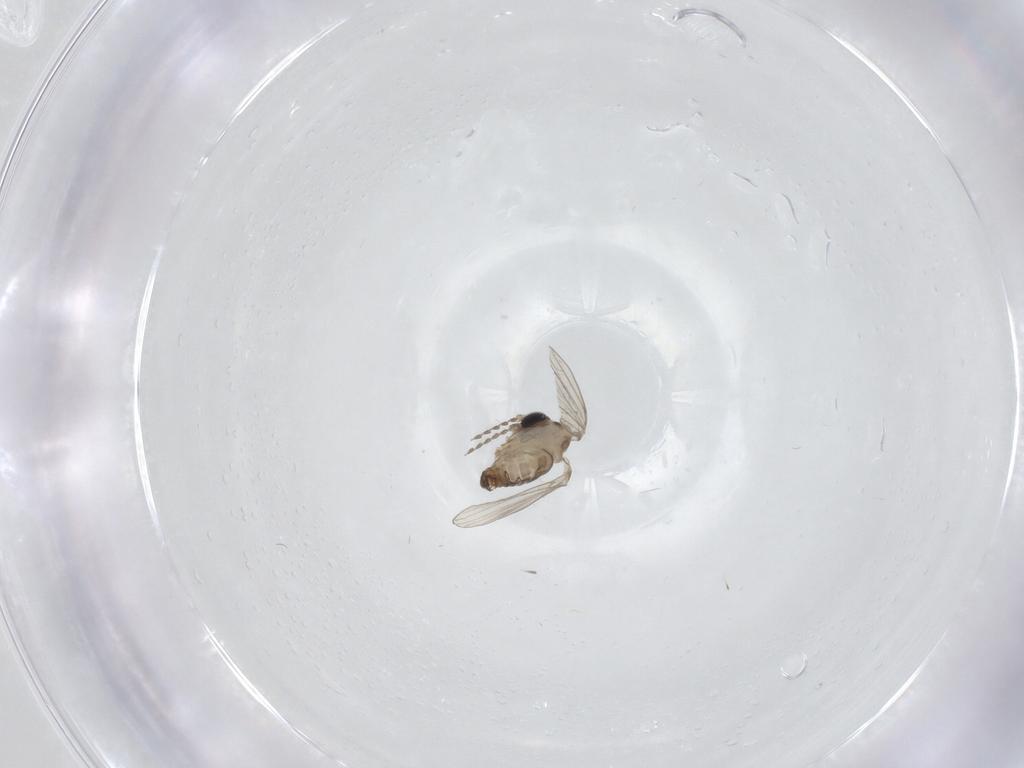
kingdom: Animalia
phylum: Arthropoda
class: Insecta
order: Diptera
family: Psychodidae
